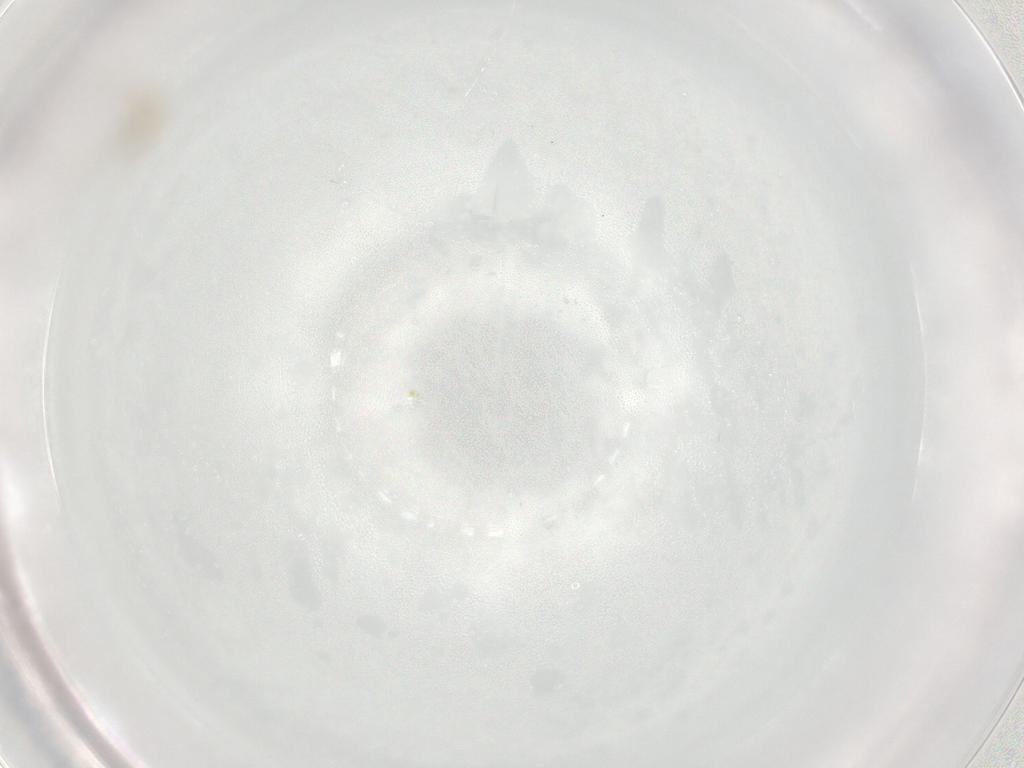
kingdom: Animalia
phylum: Arthropoda
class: Insecta
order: Diptera
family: Cecidomyiidae
